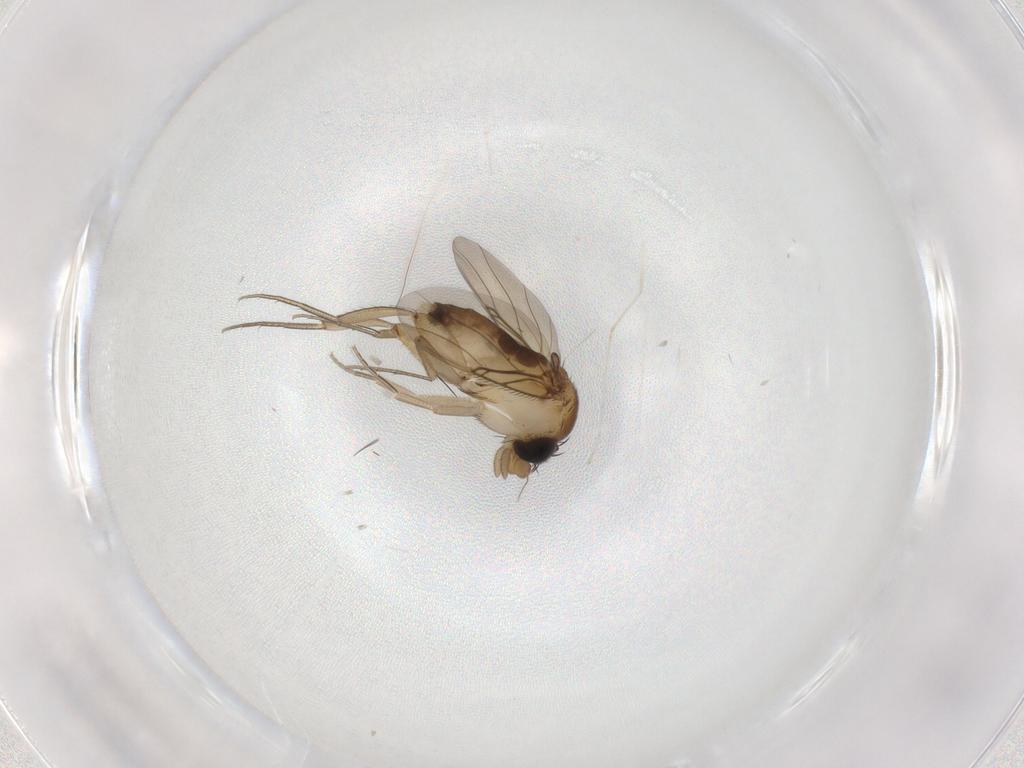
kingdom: Animalia
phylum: Arthropoda
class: Insecta
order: Diptera
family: Phoridae
